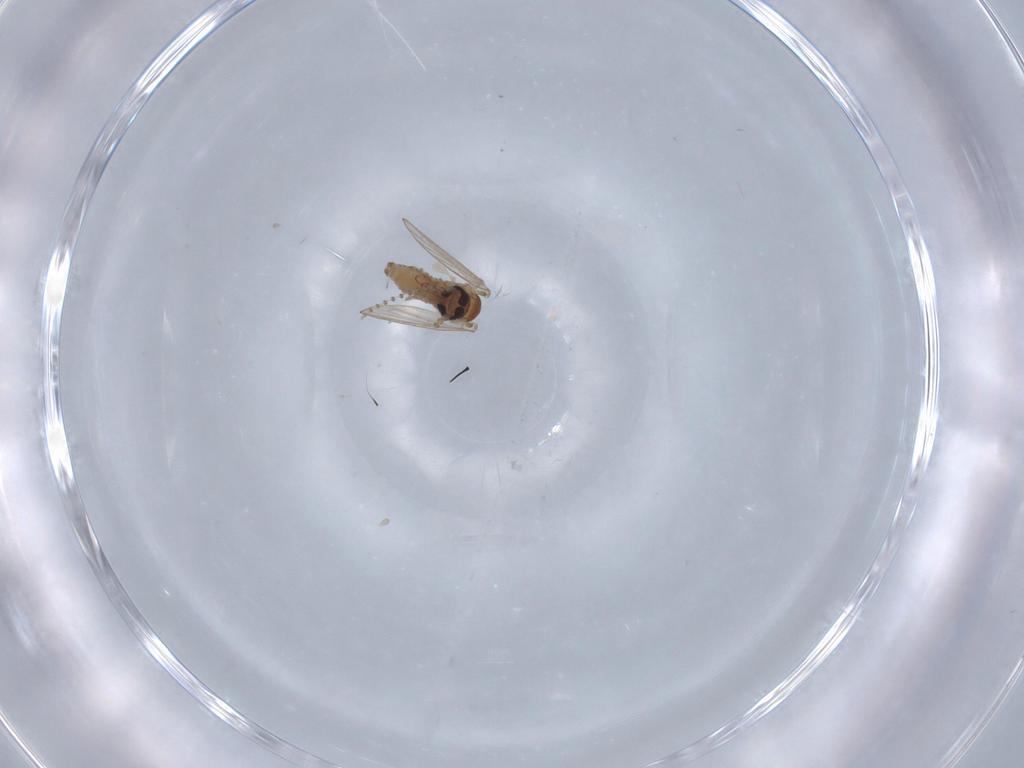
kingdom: Animalia
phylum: Arthropoda
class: Insecta
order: Diptera
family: Psychodidae
